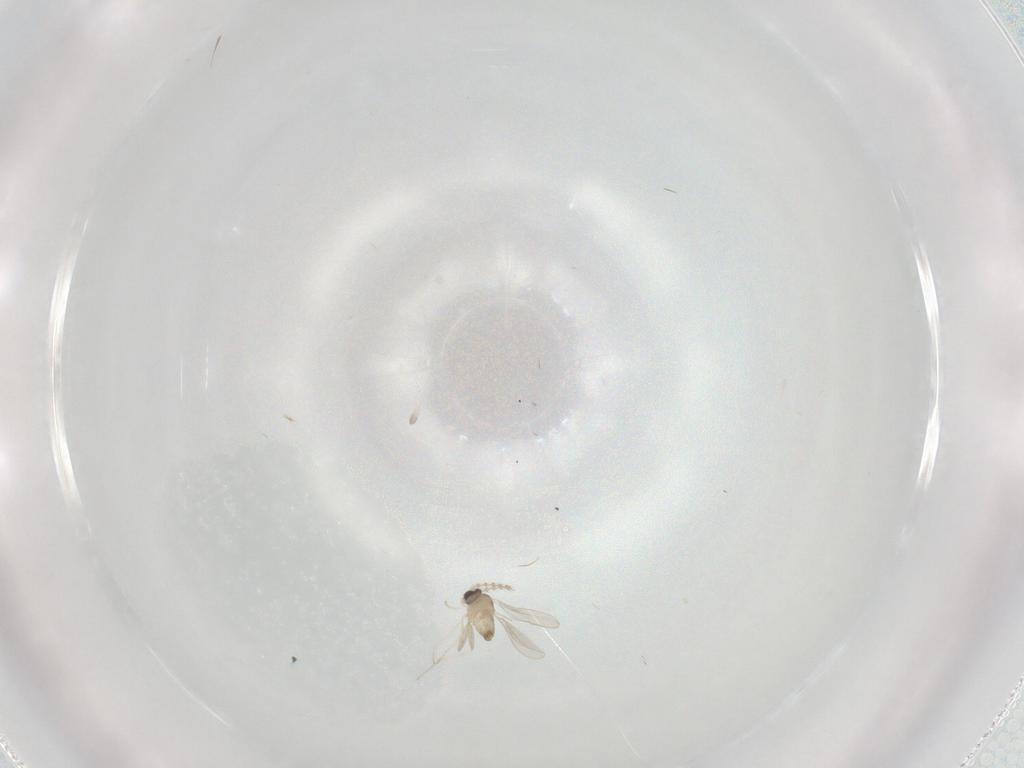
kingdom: Animalia
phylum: Arthropoda
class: Insecta
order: Diptera
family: Cecidomyiidae
